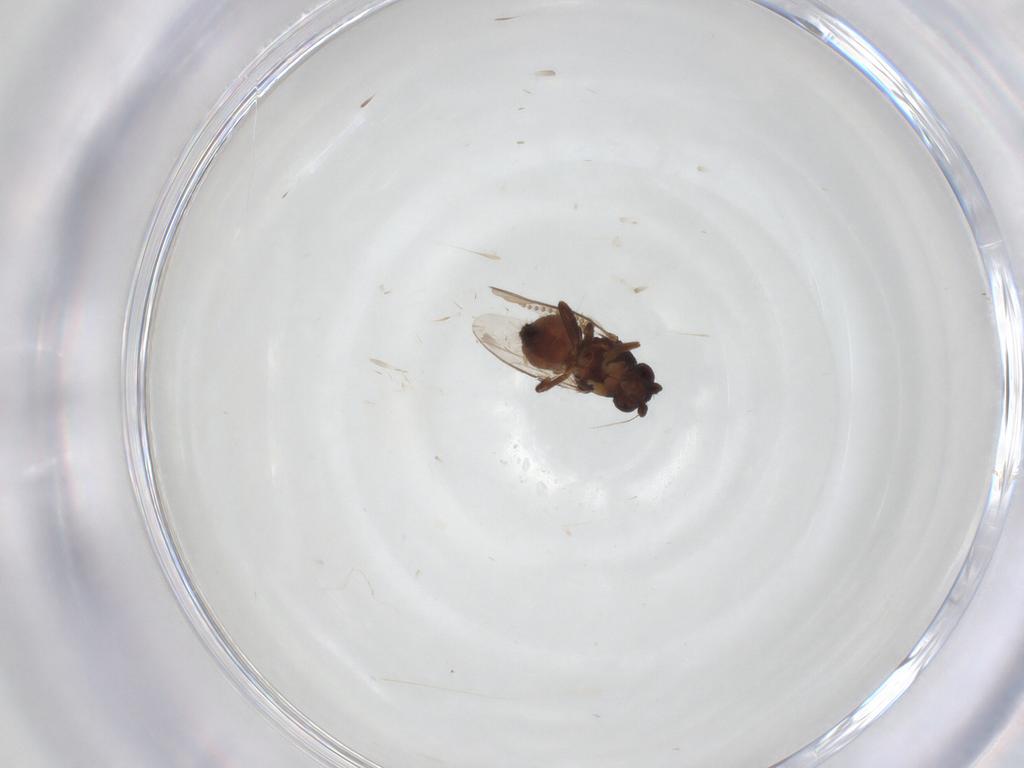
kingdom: Animalia
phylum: Arthropoda
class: Insecta
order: Diptera
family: Sphaeroceridae
